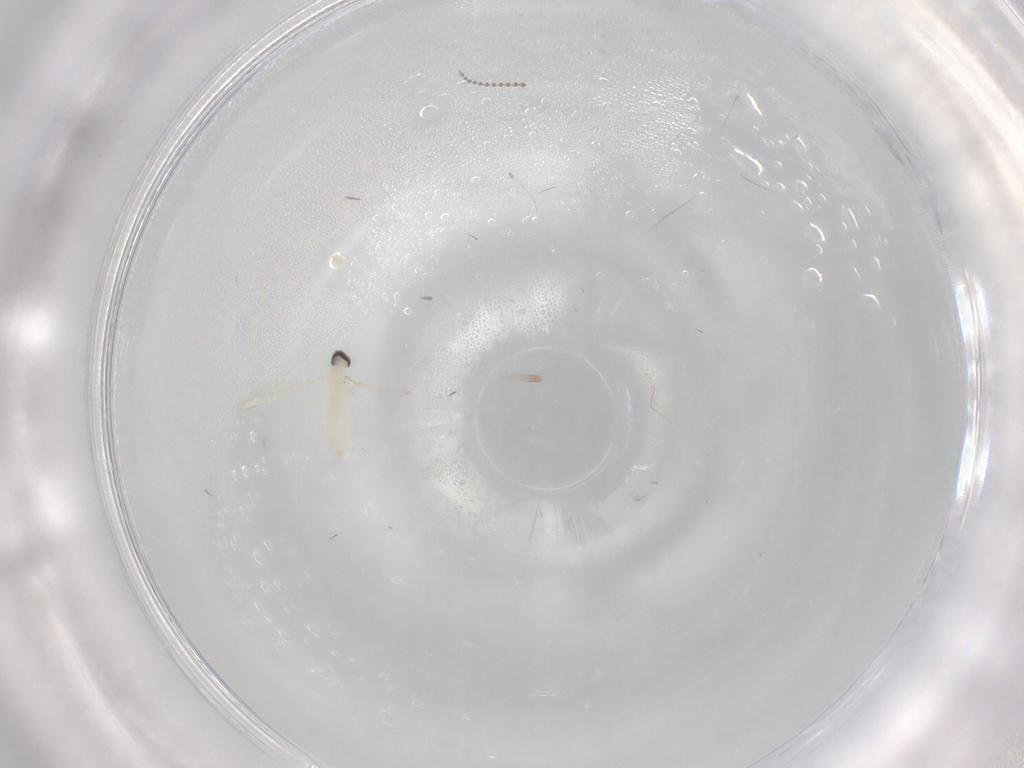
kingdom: Animalia
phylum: Arthropoda
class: Insecta
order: Diptera
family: Cecidomyiidae
